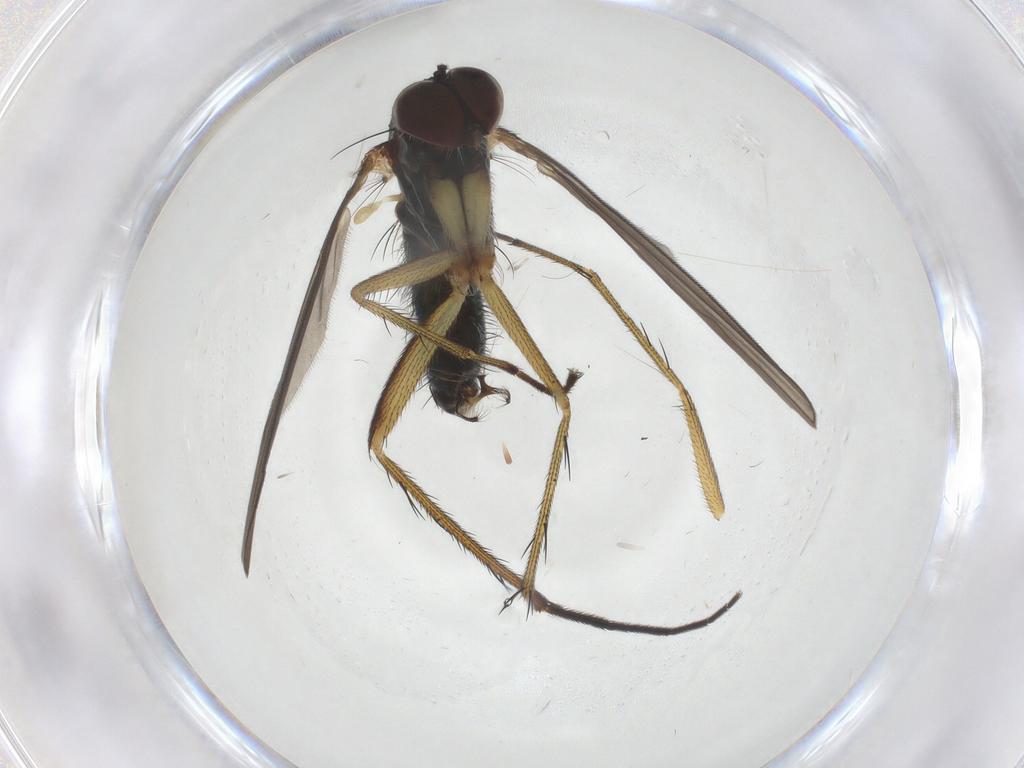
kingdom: Animalia
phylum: Arthropoda
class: Insecta
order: Diptera
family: Dolichopodidae
